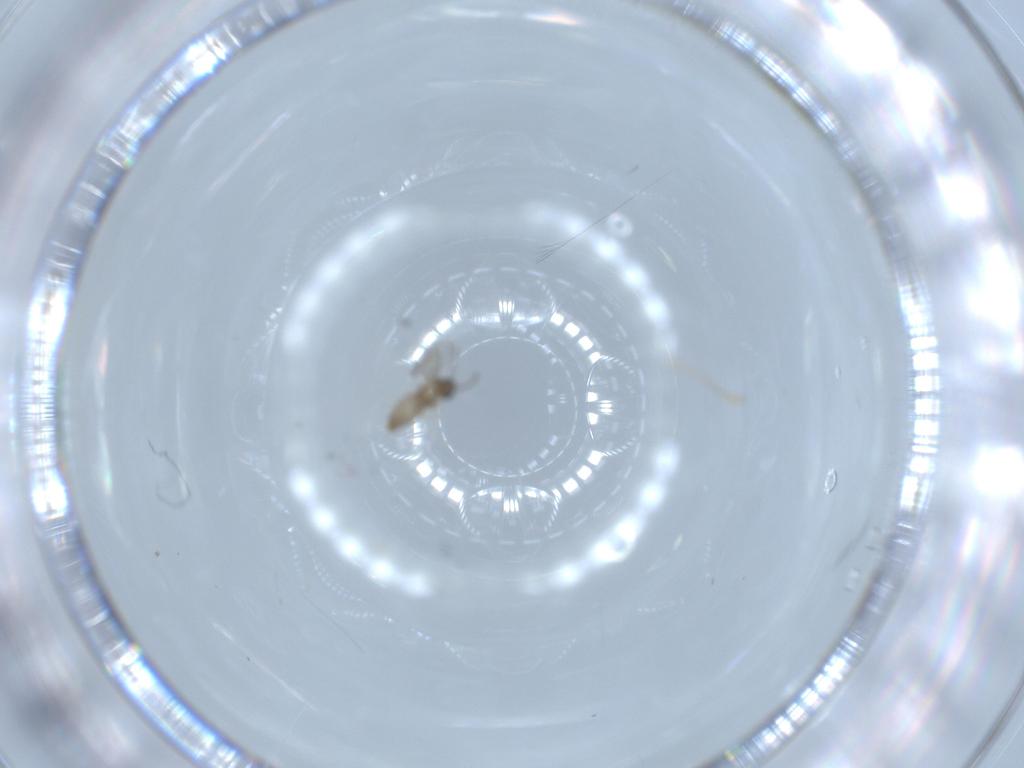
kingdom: Animalia
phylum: Arthropoda
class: Insecta
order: Diptera
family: Cecidomyiidae
